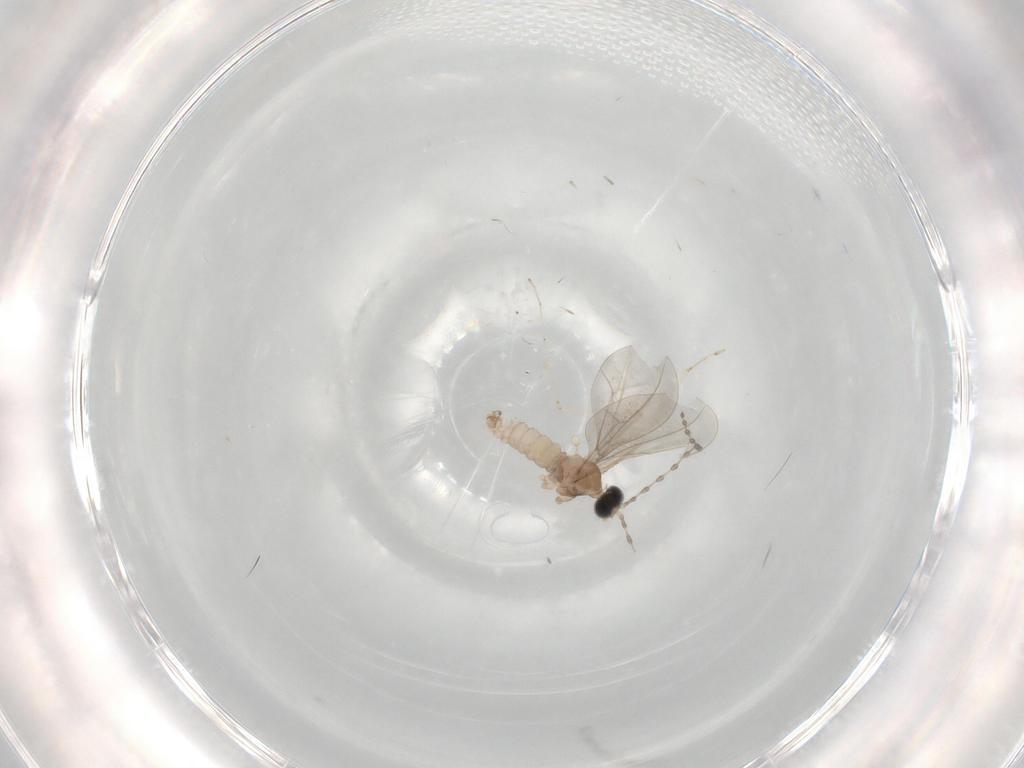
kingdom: Animalia
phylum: Arthropoda
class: Insecta
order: Diptera
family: Cecidomyiidae
